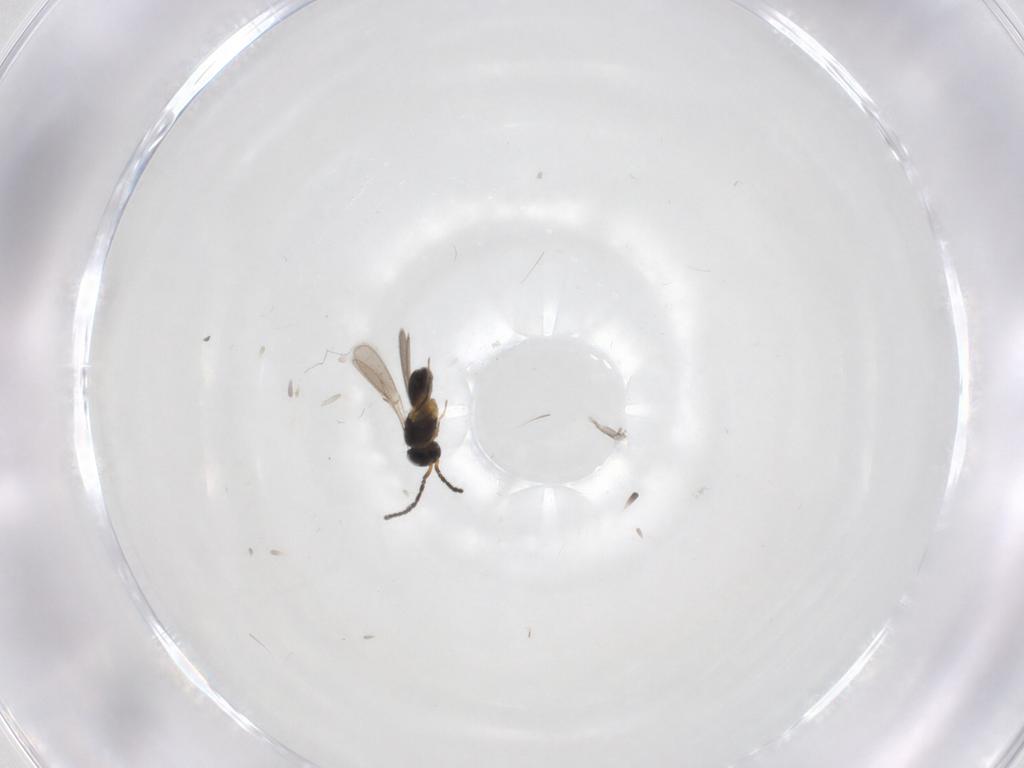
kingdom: Animalia
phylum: Arthropoda
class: Insecta
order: Hymenoptera
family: Scelionidae
